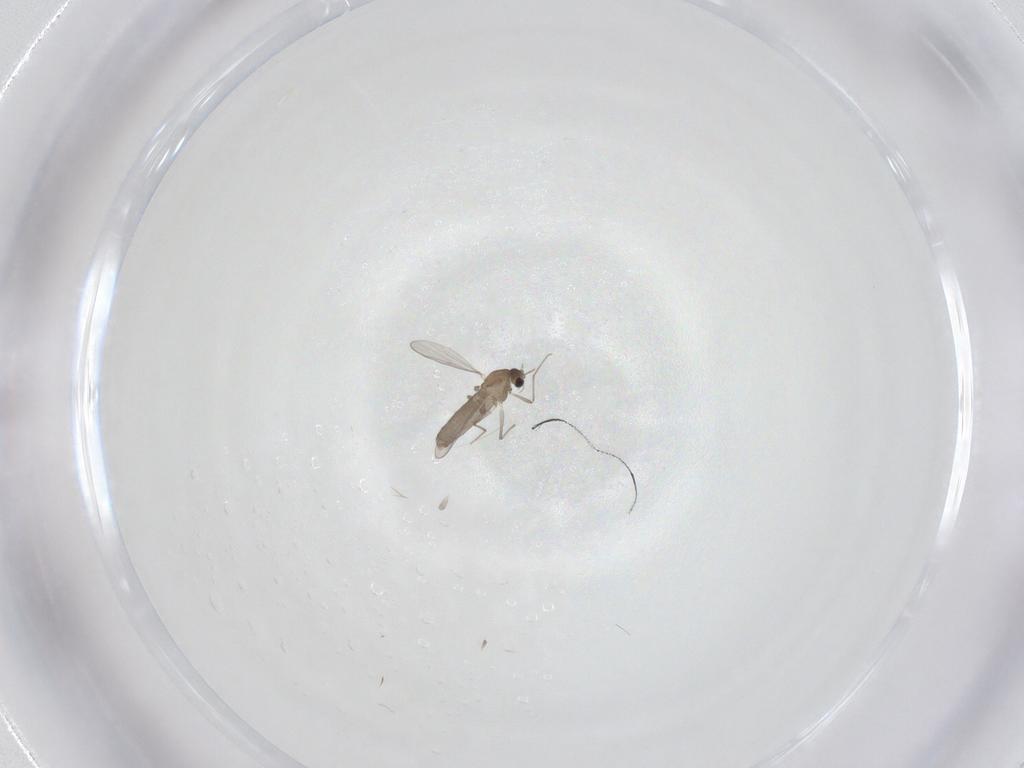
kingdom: Animalia
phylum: Arthropoda
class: Insecta
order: Diptera
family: Chironomidae
